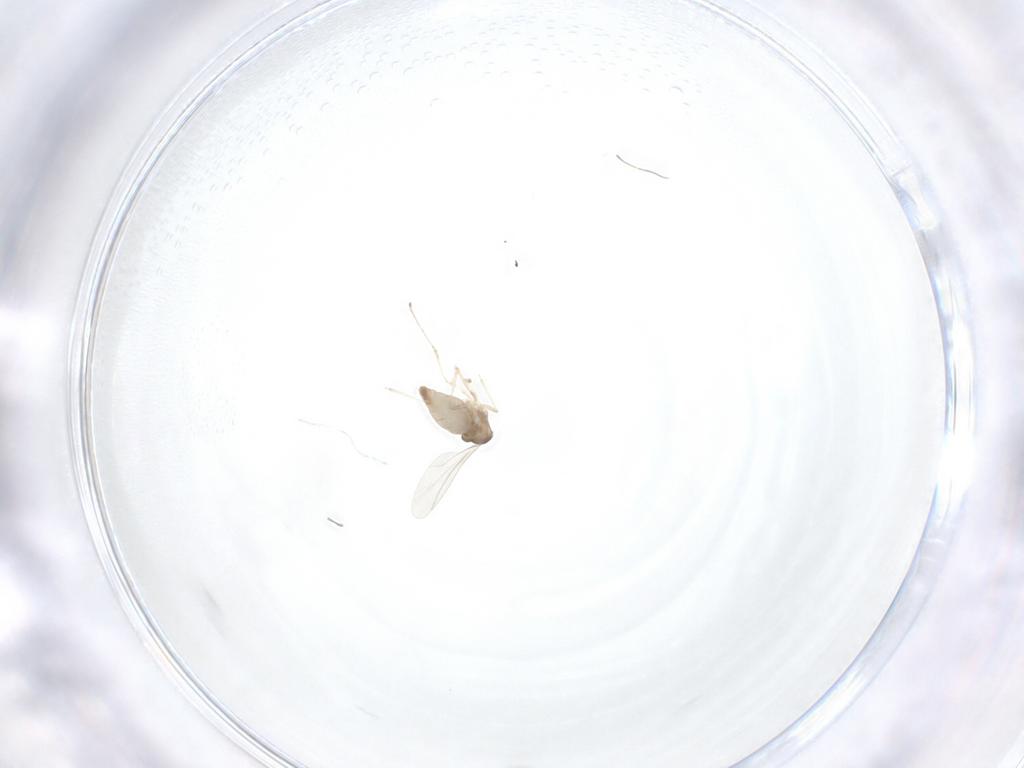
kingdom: Animalia
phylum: Arthropoda
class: Insecta
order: Diptera
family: Cecidomyiidae
